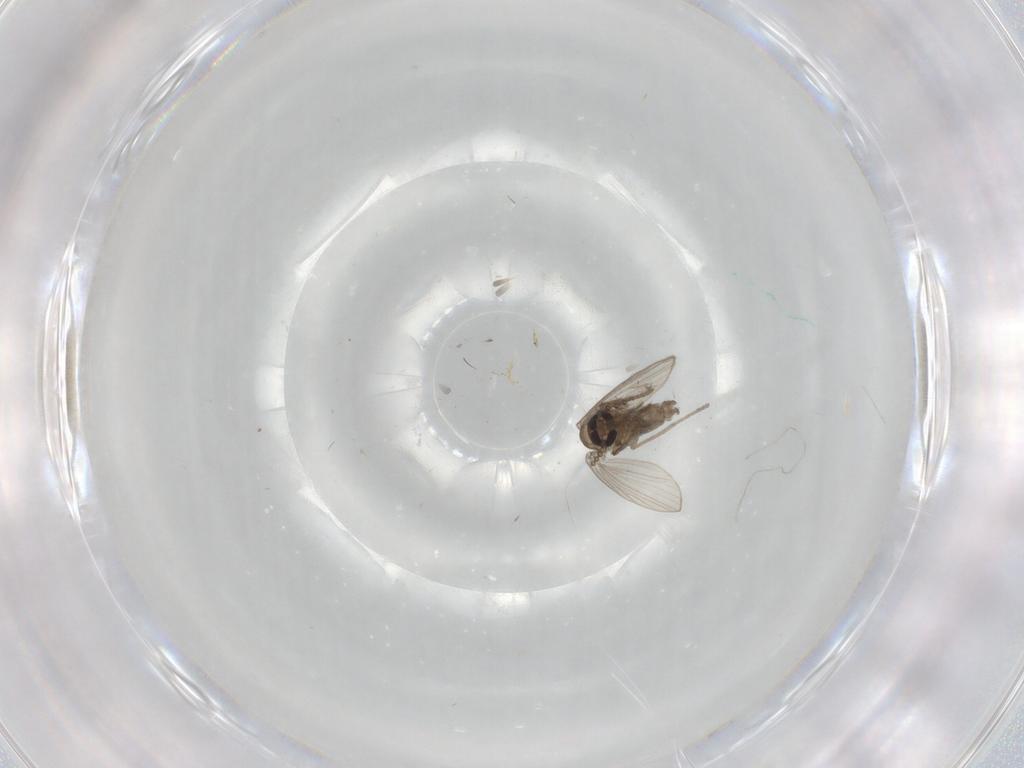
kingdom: Animalia
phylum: Arthropoda
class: Insecta
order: Diptera
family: Psychodidae
